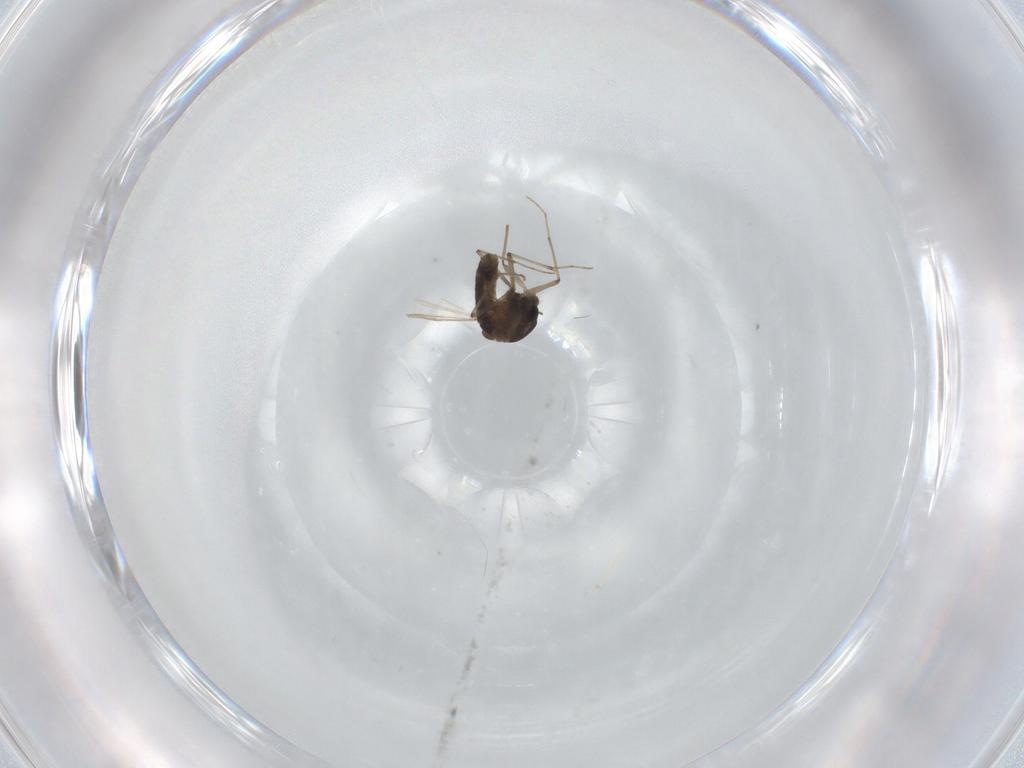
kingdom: Animalia
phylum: Arthropoda
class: Insecta
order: Diptera
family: Chironomidae
